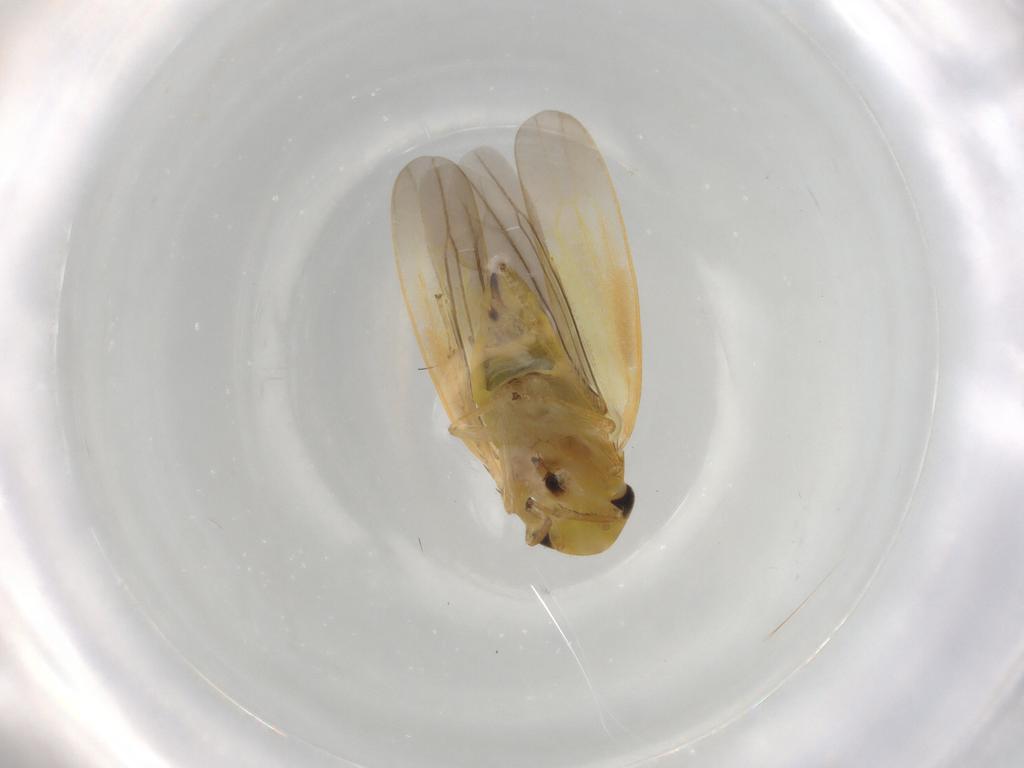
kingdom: Animalia
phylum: Arthropoda
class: Insecta
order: Hemiptera
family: Cicadellidae
